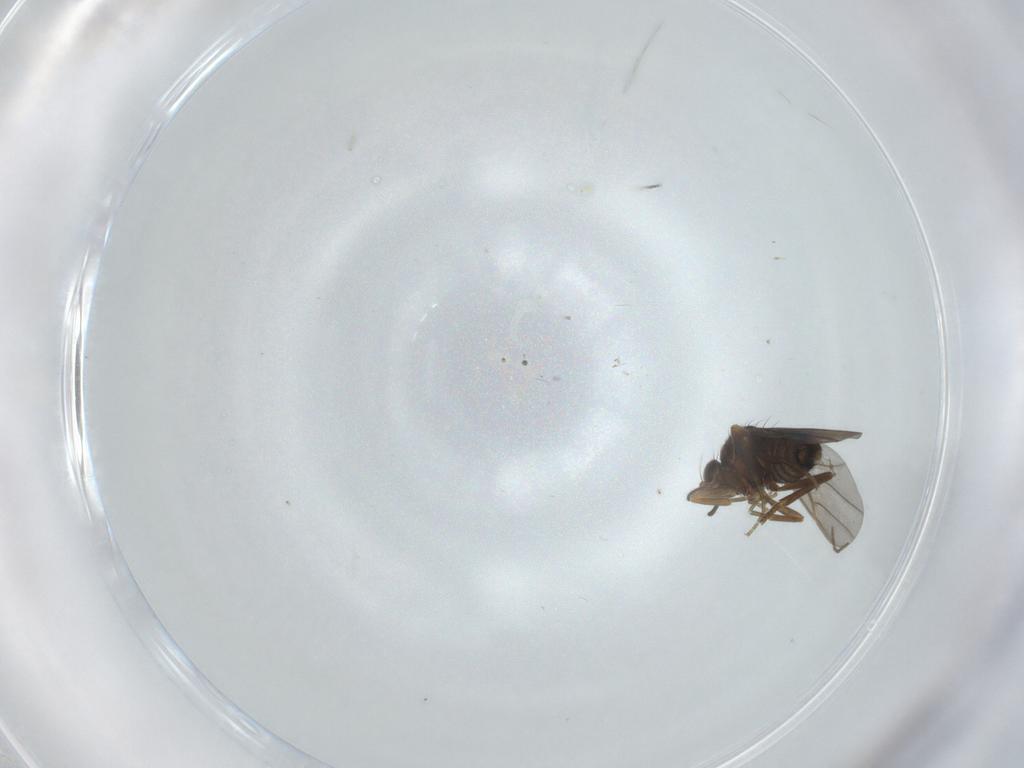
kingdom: Animalia
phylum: Arthropoda
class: Insecta
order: Diptera
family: Phoridae
